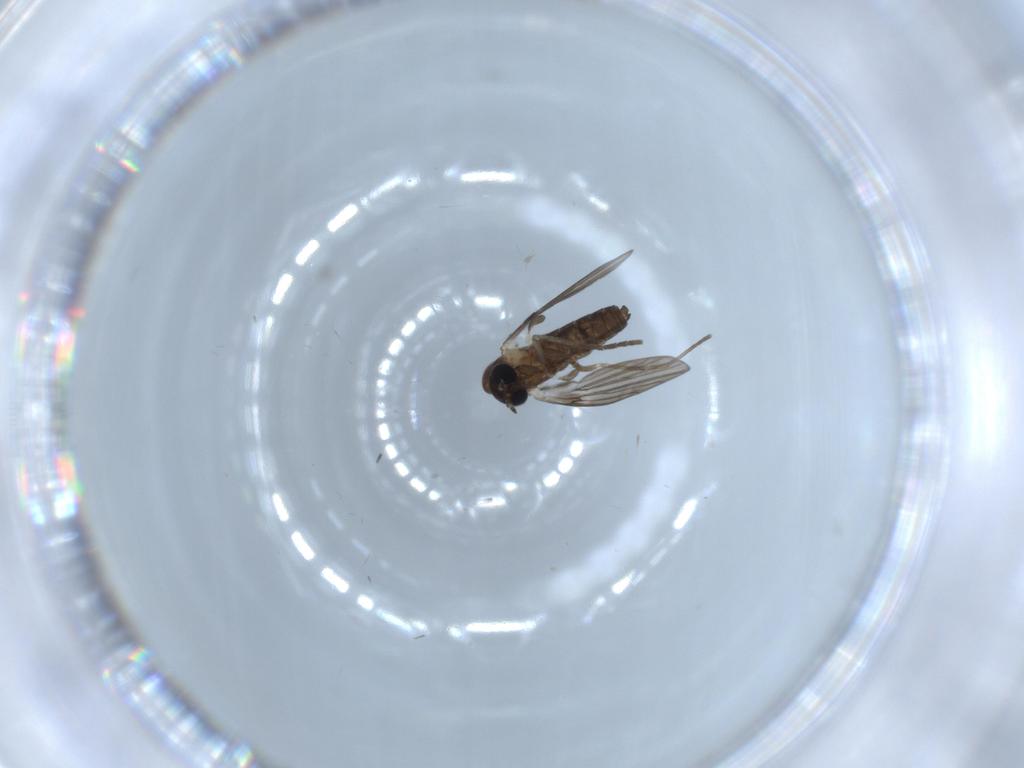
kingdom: Animalia
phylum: Arthropoda
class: Insecta
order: Diptera
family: Psychodidae
